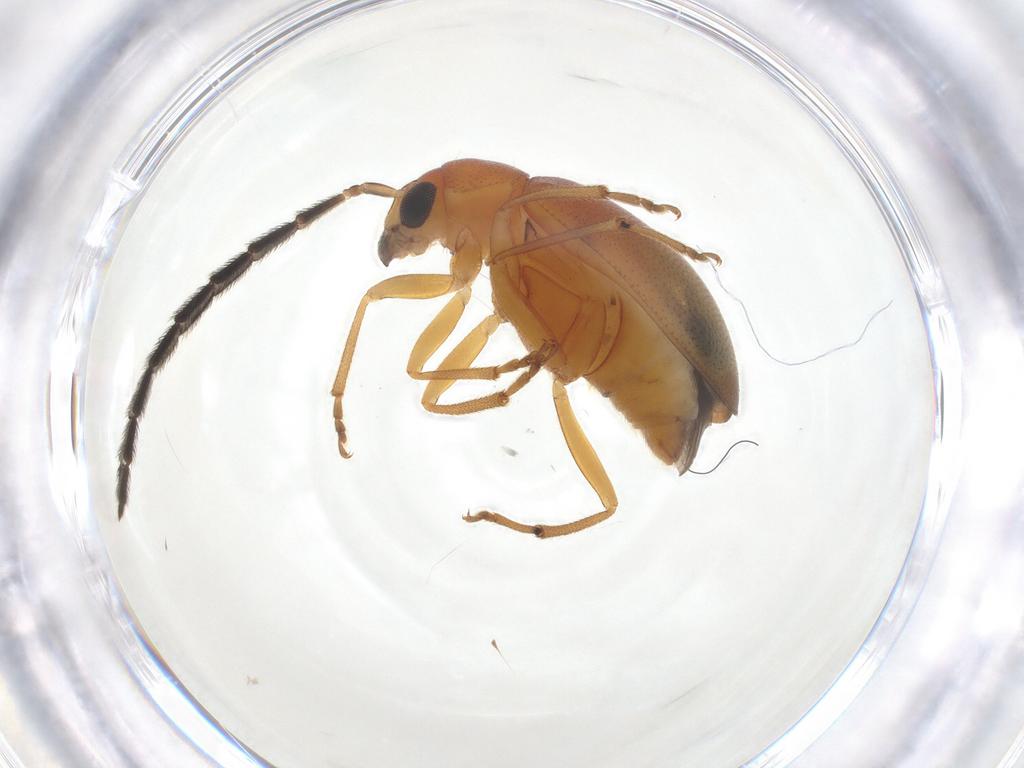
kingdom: Animalia
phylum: Arthropoda
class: Insecta
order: Coleoptera
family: Chrysomelidae
